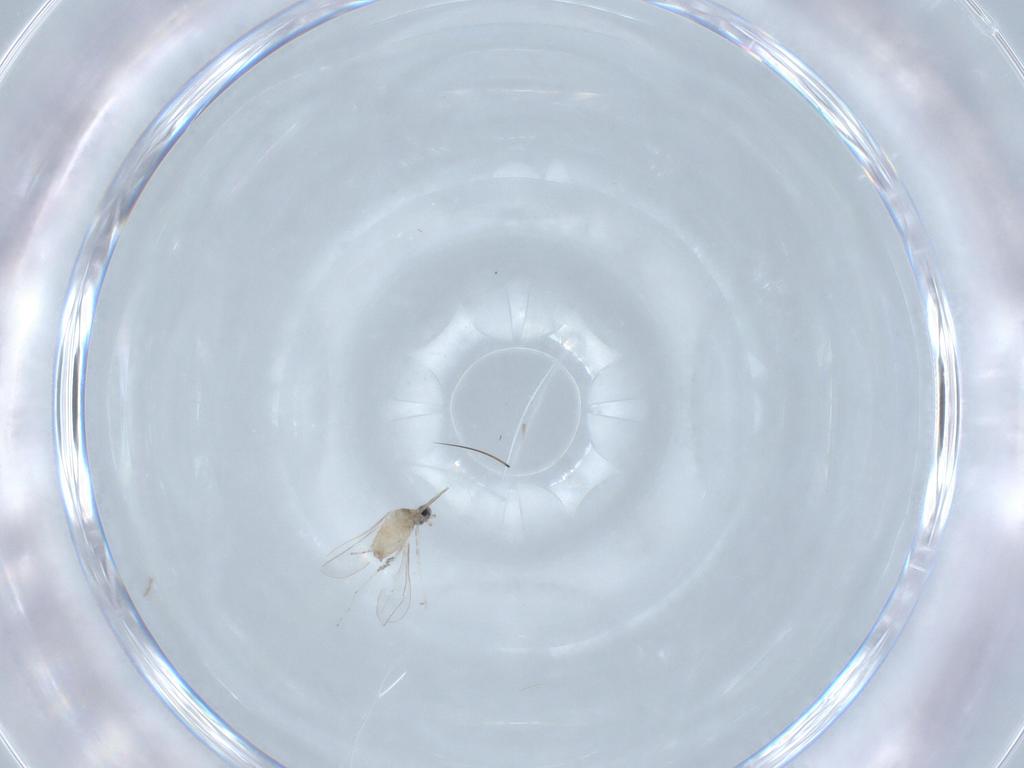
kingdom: Animalia
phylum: Arthropoda
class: Insecta
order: Diptera
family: Cecidomyiidae
